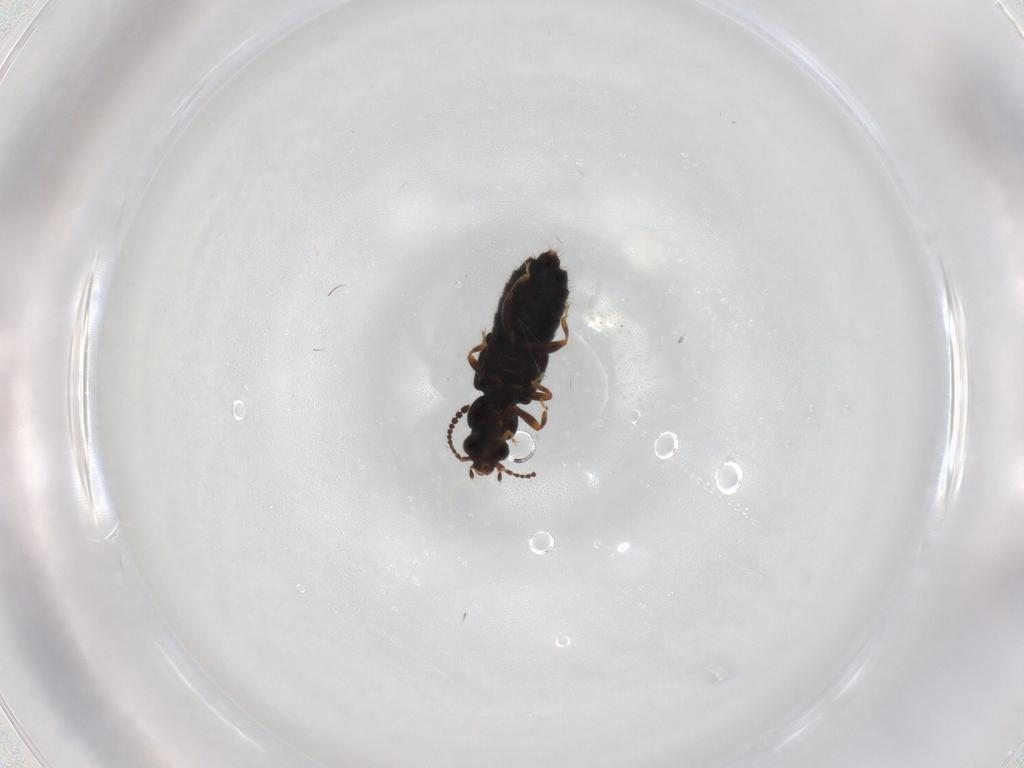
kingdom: Animalia
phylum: Arthropoda
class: Insecta
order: Coleoptera
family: Staphylinidae
